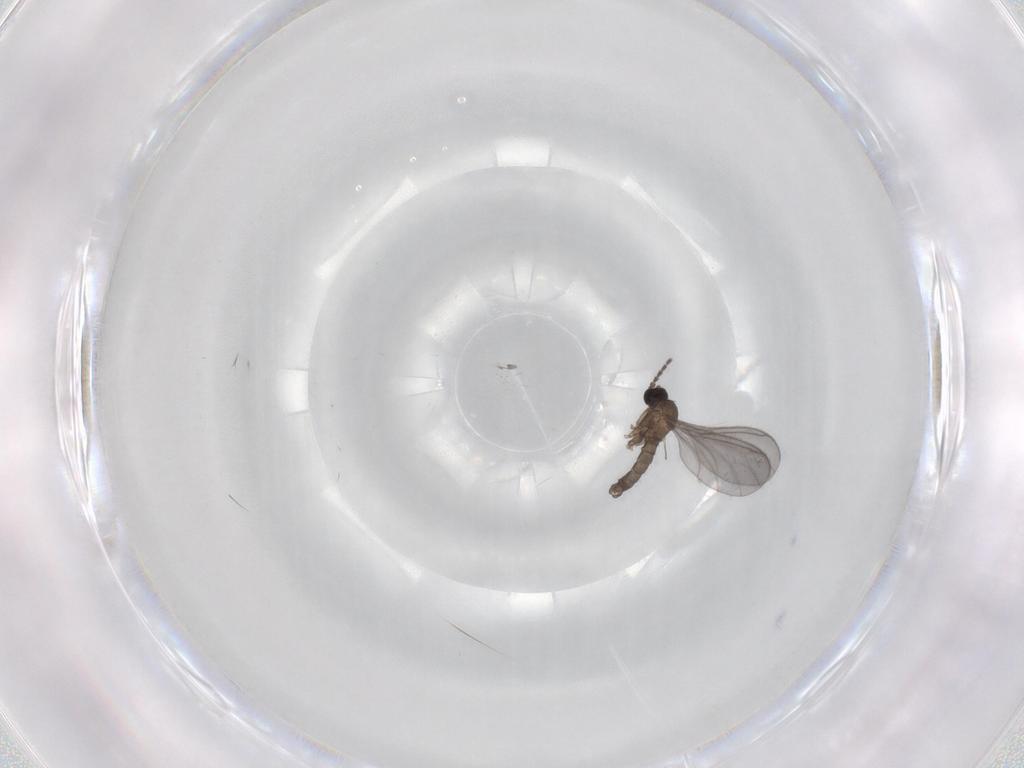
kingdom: Animalia
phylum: Arthropoda
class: Insecta
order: Diptera
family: Sciaridae
